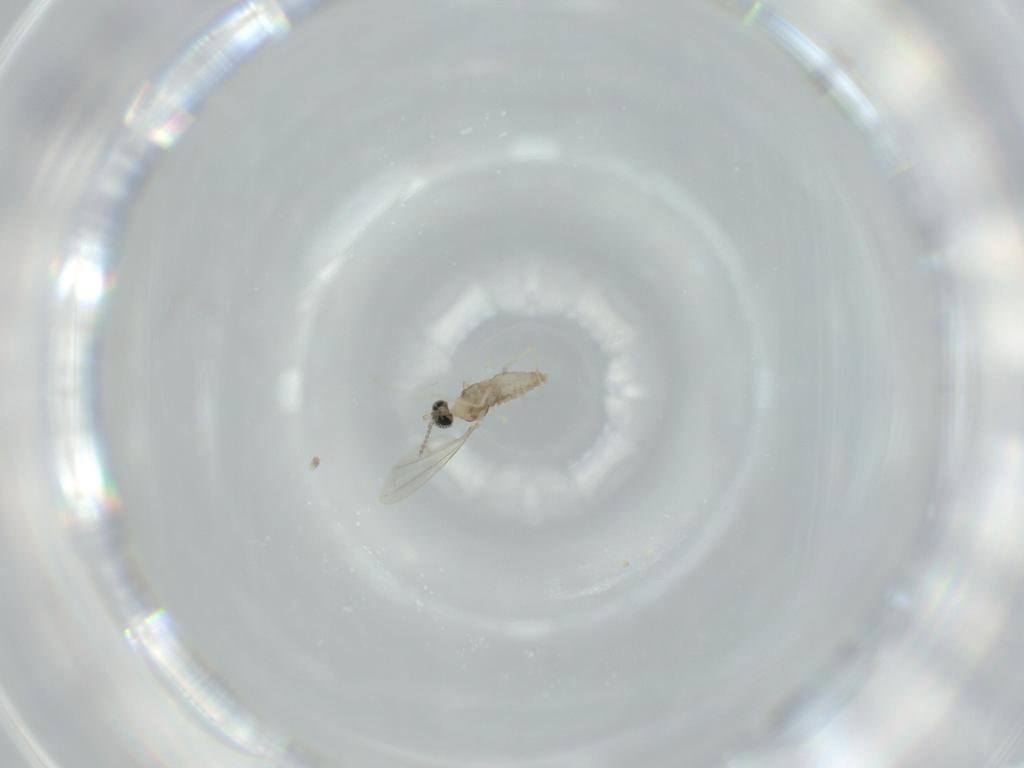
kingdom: Animalia
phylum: Arthropoda
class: Insecta
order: Diptera
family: Cecidomyiidae
